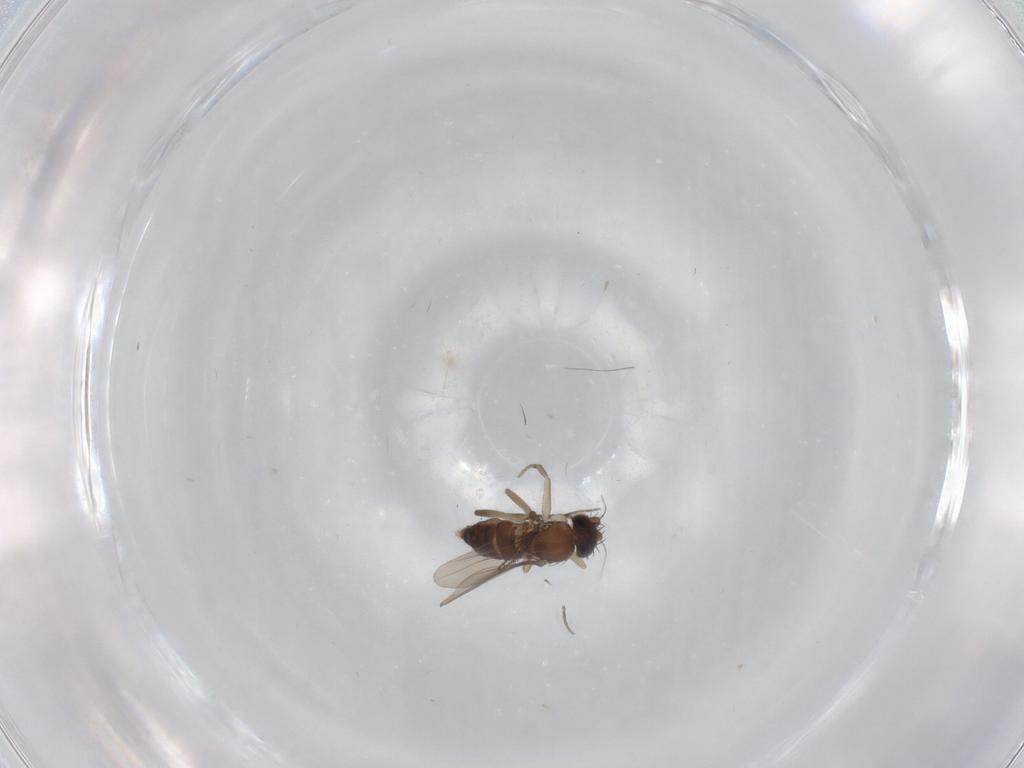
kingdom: Animalia
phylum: Arthropoda
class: Insecta
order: Diptera
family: Phoridae
